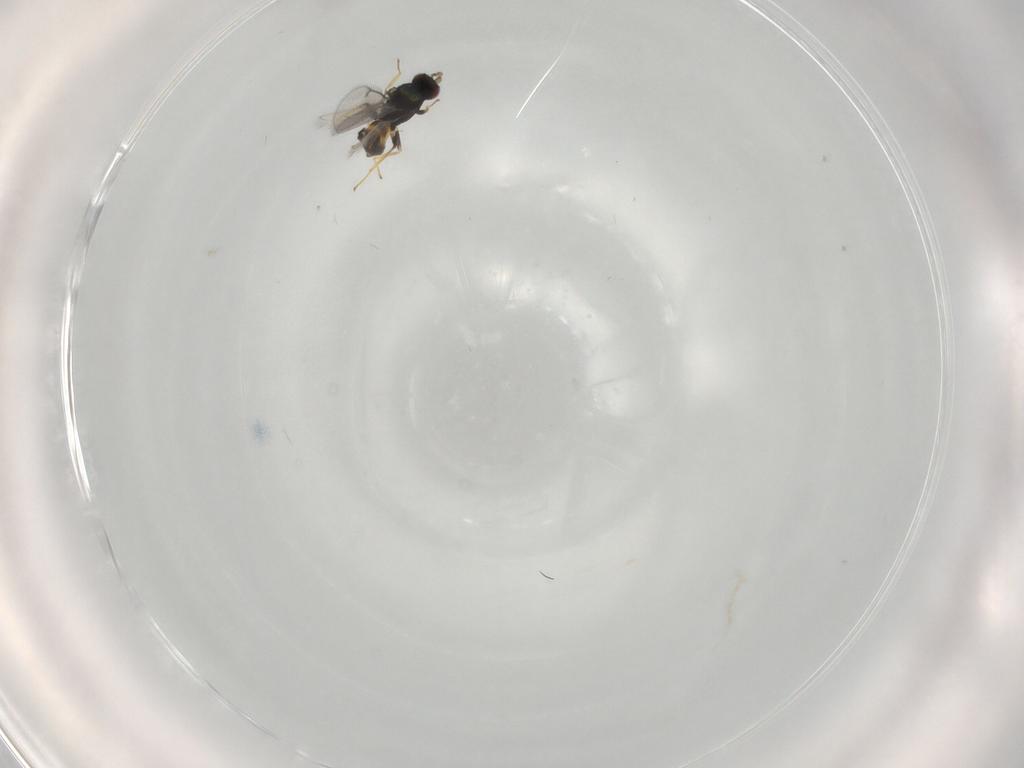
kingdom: Animalia
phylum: Arthropoda
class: Insecta
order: Hymenoptera
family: Eulophidae
